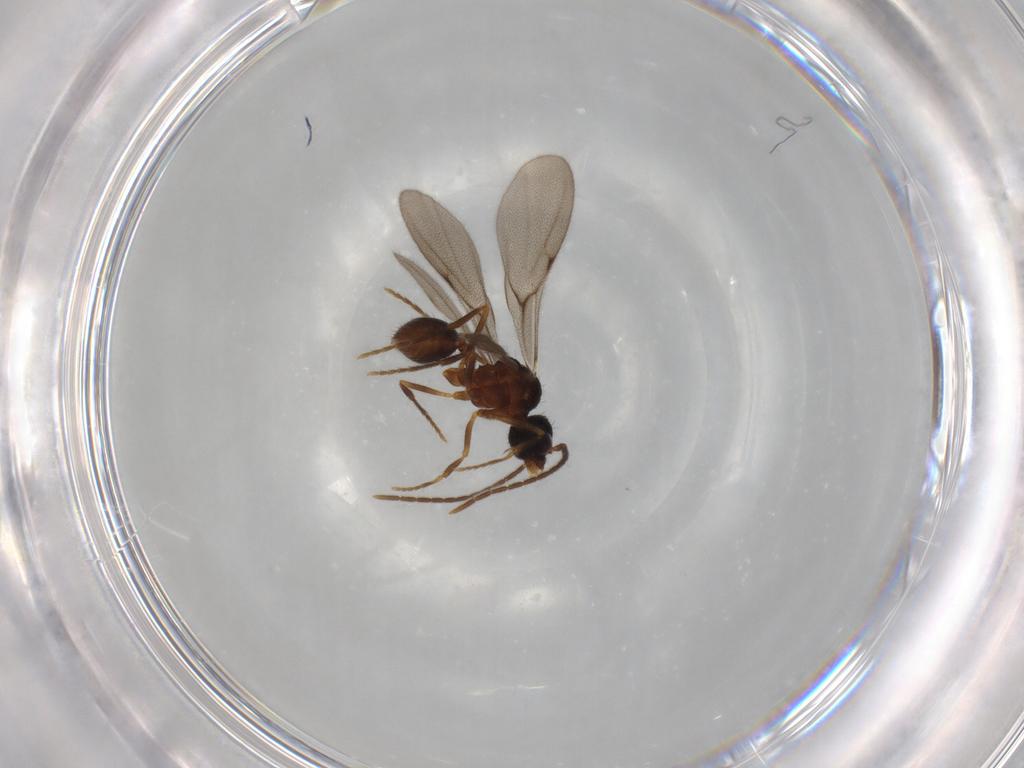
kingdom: Animalia
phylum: Arthropoda
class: Insecta
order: Hymenoptera
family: Formicidae
